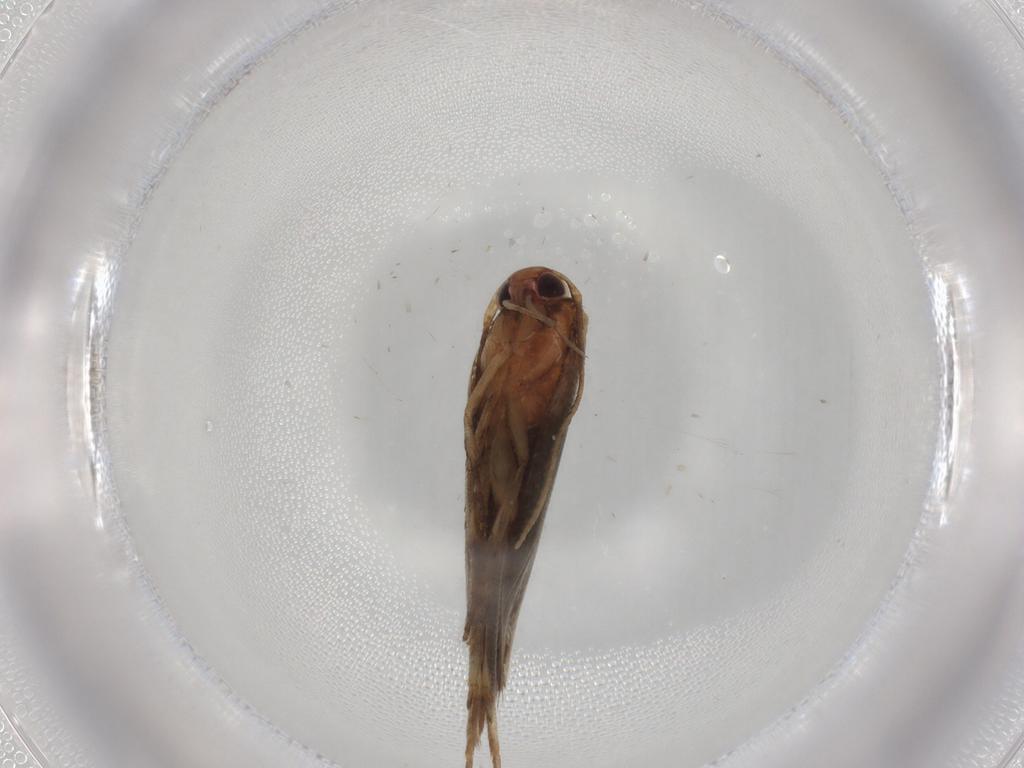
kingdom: Animalia
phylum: Arthropoda
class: Insecta
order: Lepidoptera
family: Cosmopterigidae
